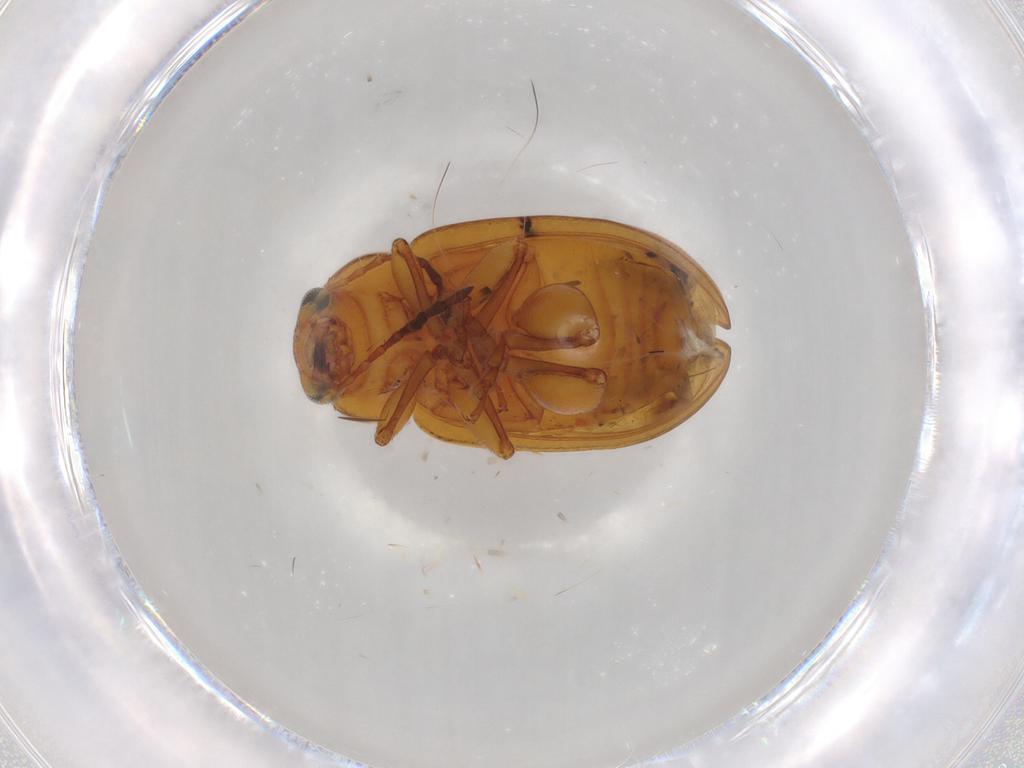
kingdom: Animalia
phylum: Arthropoda
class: Insecta
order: Coleoptera
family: Chrysomelidae
